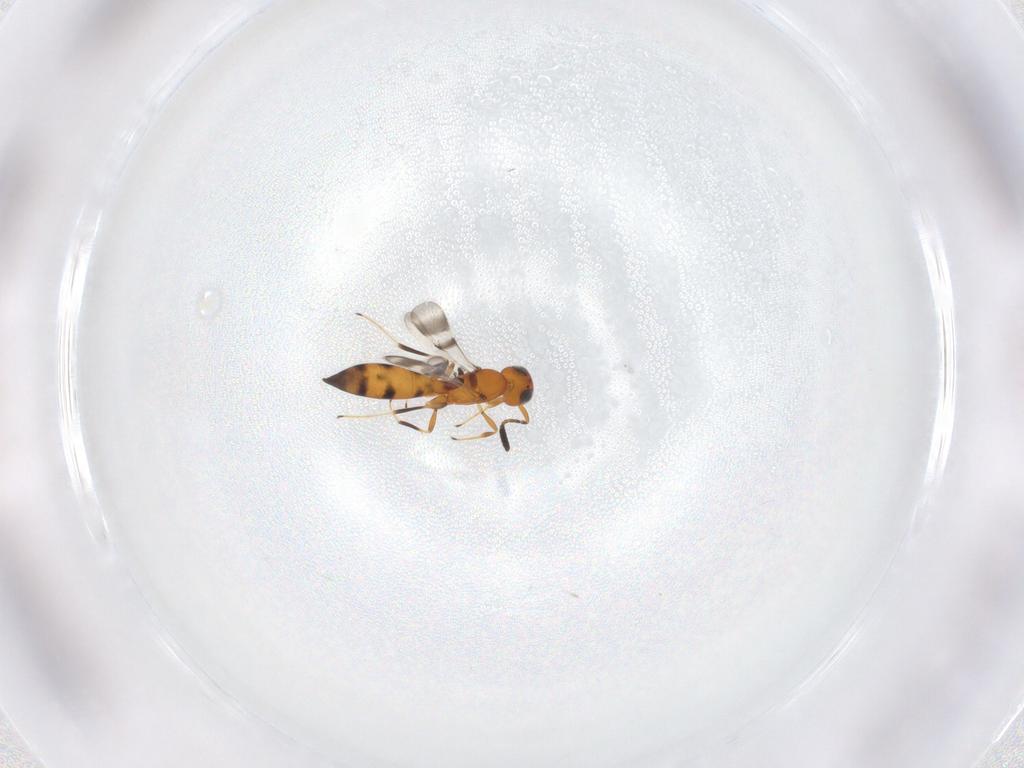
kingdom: Animalia
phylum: Arthropoda
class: Insecta
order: Hymenoptera
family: Scelionidae
